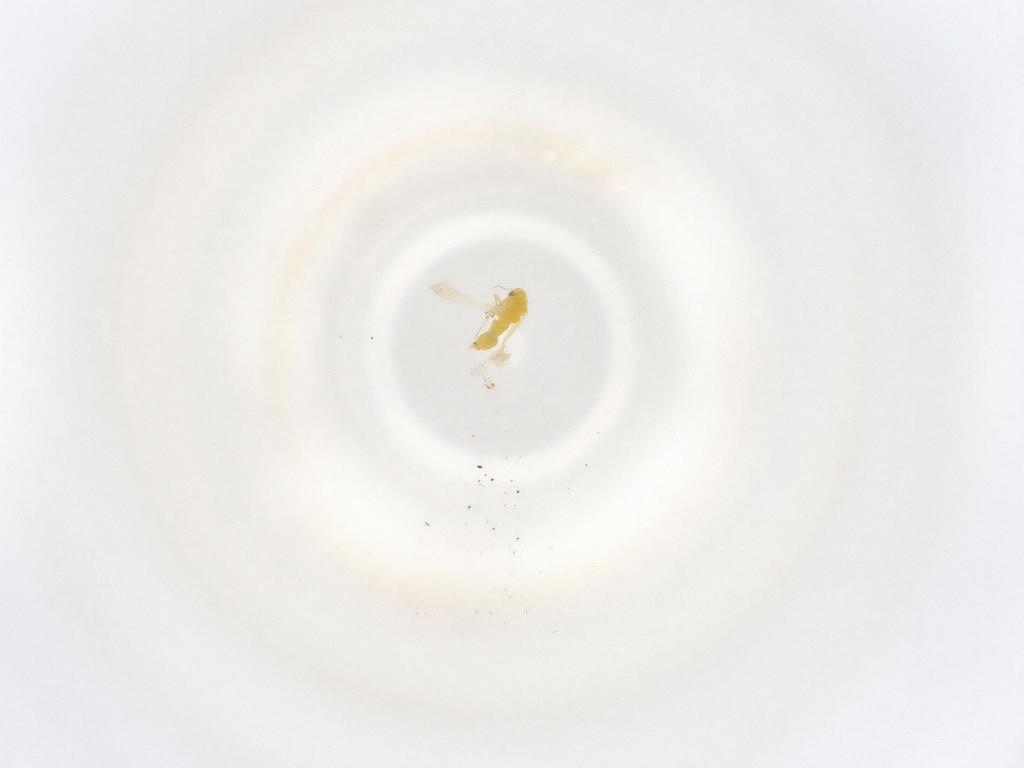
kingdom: Animalia
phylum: Arthropoda
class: Insecta
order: Hemiptera
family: Aleyrodidae
